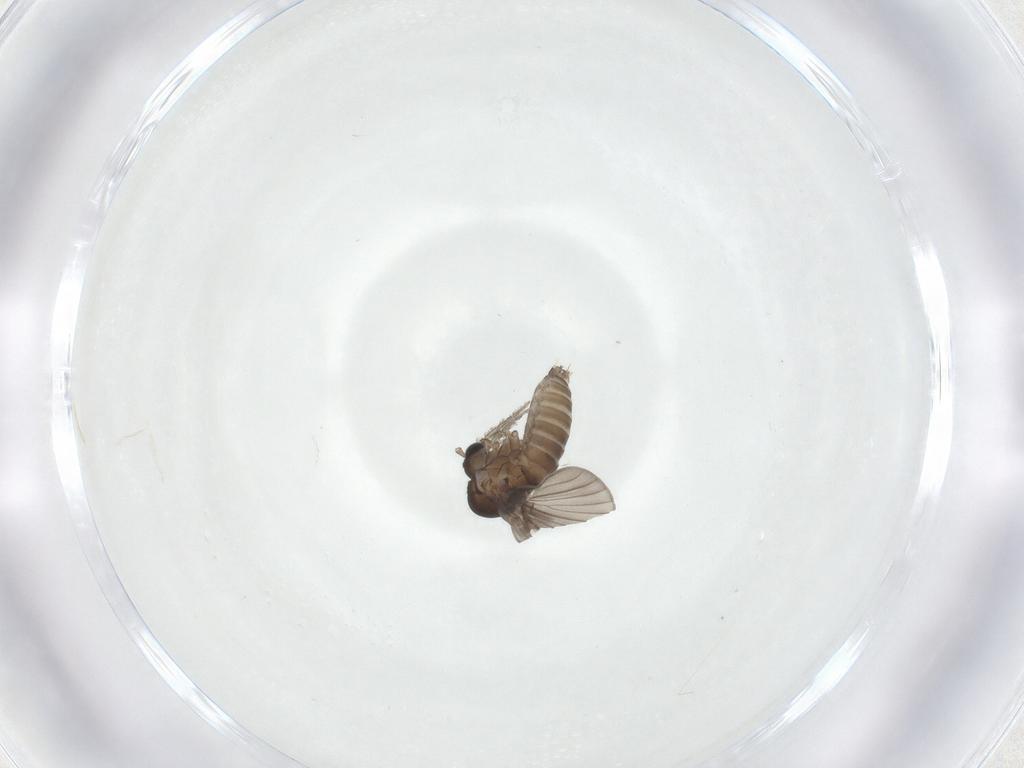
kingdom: Animalia
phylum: Arthropoda
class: Insecta
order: Diptera
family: Psychodidae
